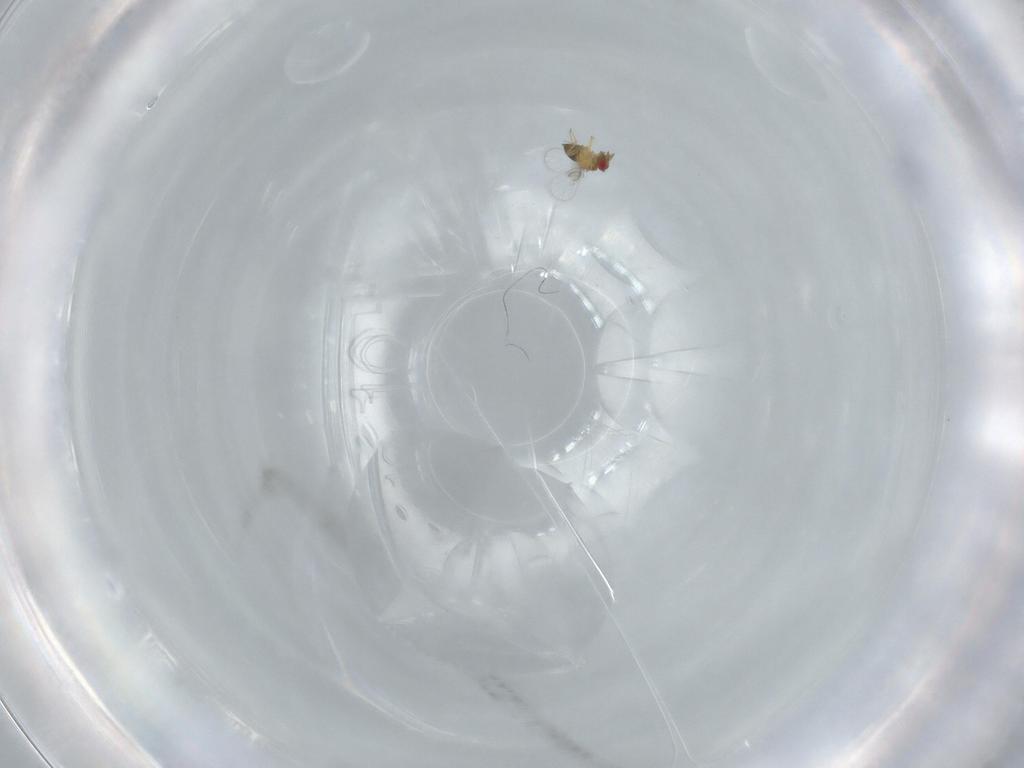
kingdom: Animalia
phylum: Arthropoda
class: Insecta
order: Hymenoptera
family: Trichogrammatidae
